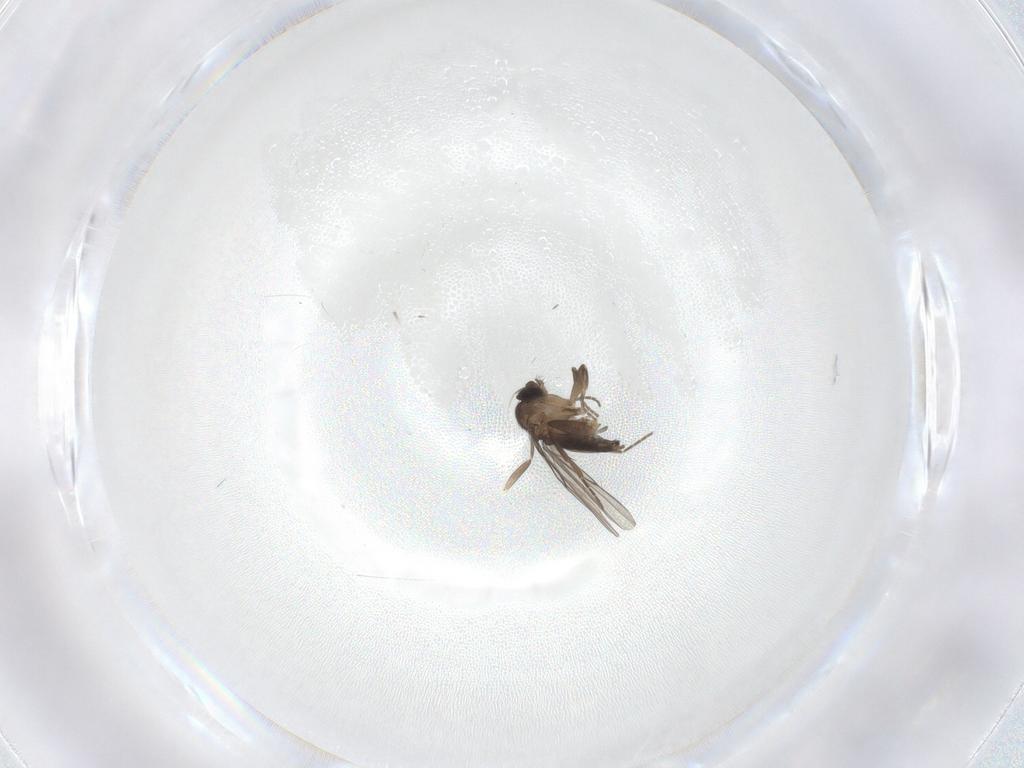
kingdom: Animalia
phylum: Arthropoda
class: Insecta
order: Diptera
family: Phoridae
